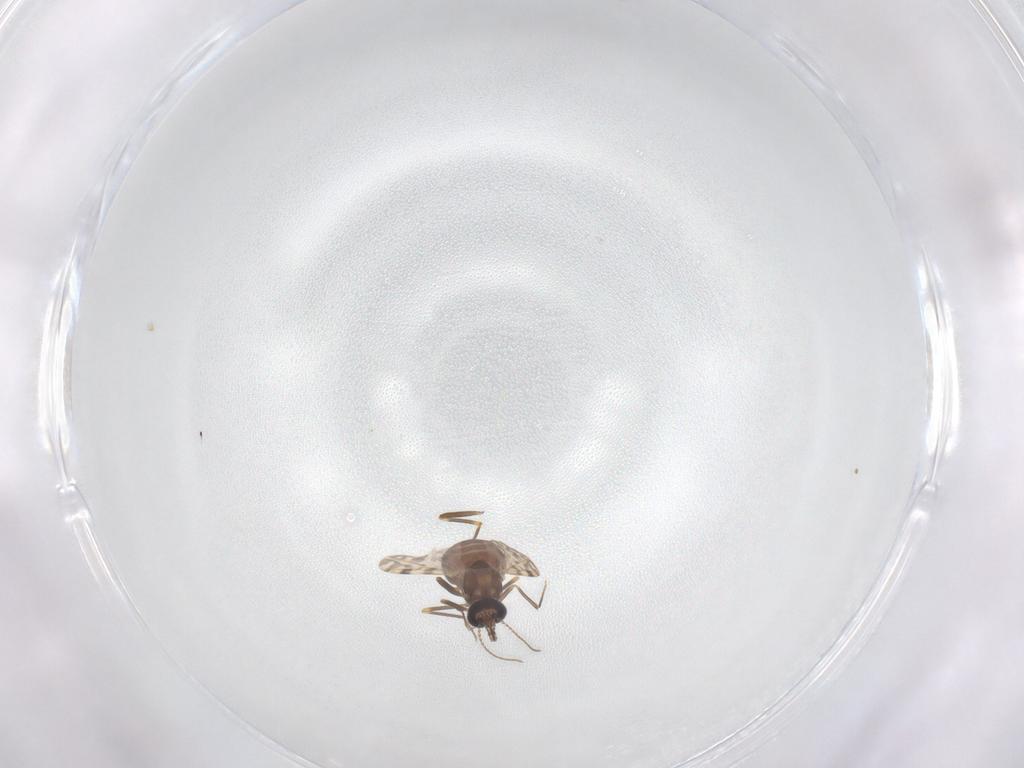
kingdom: Animalia
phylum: Arthropoda
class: Insecta
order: Diptera
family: Ceratopogonidae
